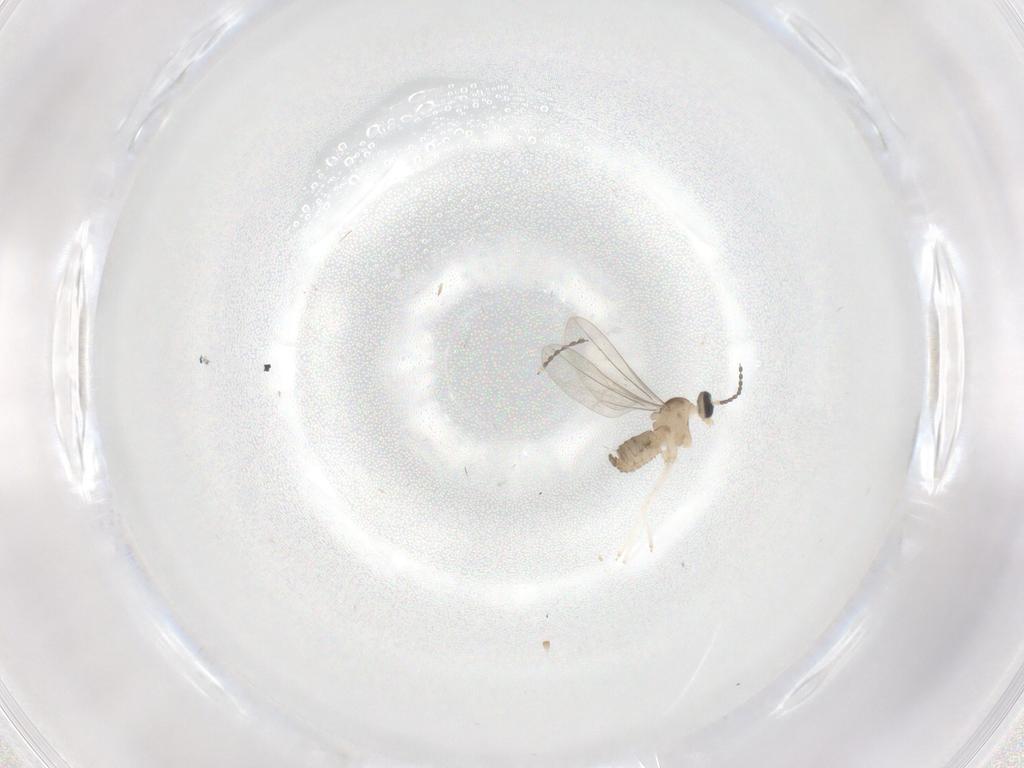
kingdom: Animalia
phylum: Arthropoda
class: Insecta
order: Diptera
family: Cecidomyiidae
